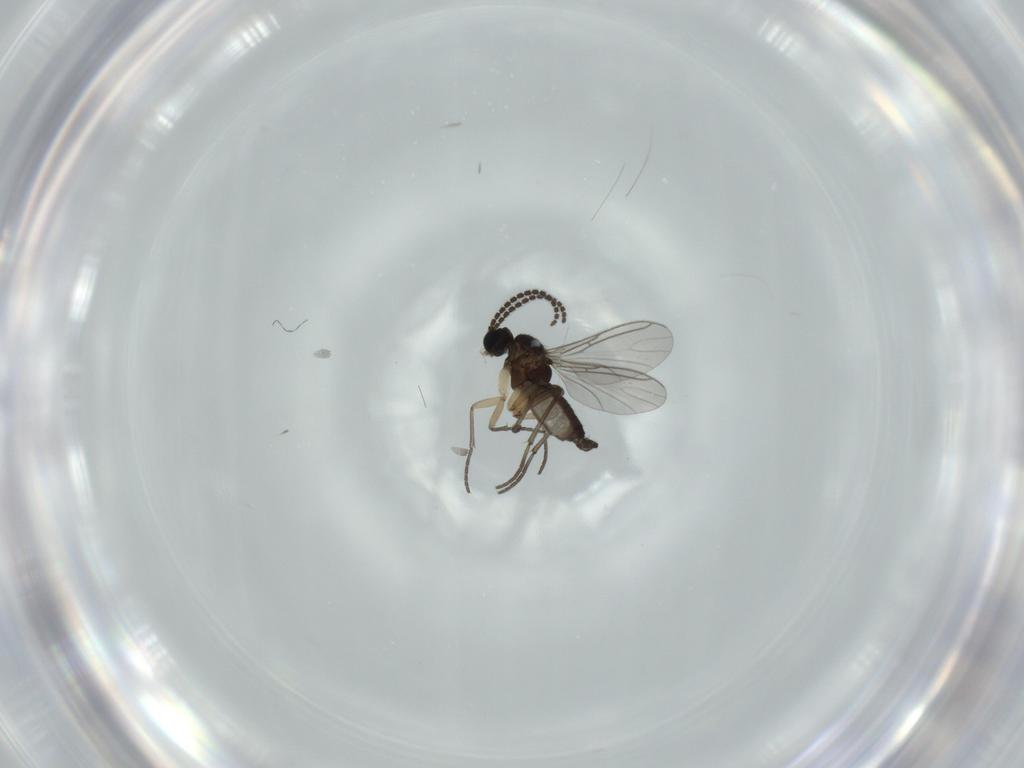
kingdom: Animalia
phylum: Arthropoda
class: Insecta
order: Diptera
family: Sciaridae
